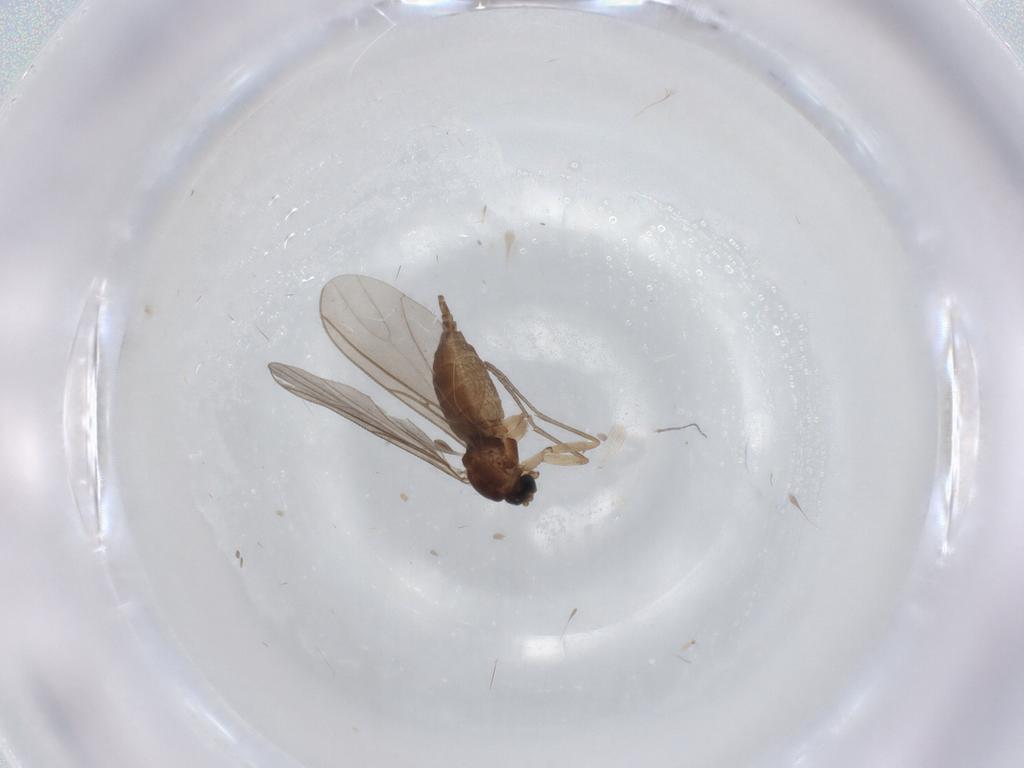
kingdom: Animalia
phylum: Arthropoda
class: Insecta
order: Diptera
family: Sciaridae
